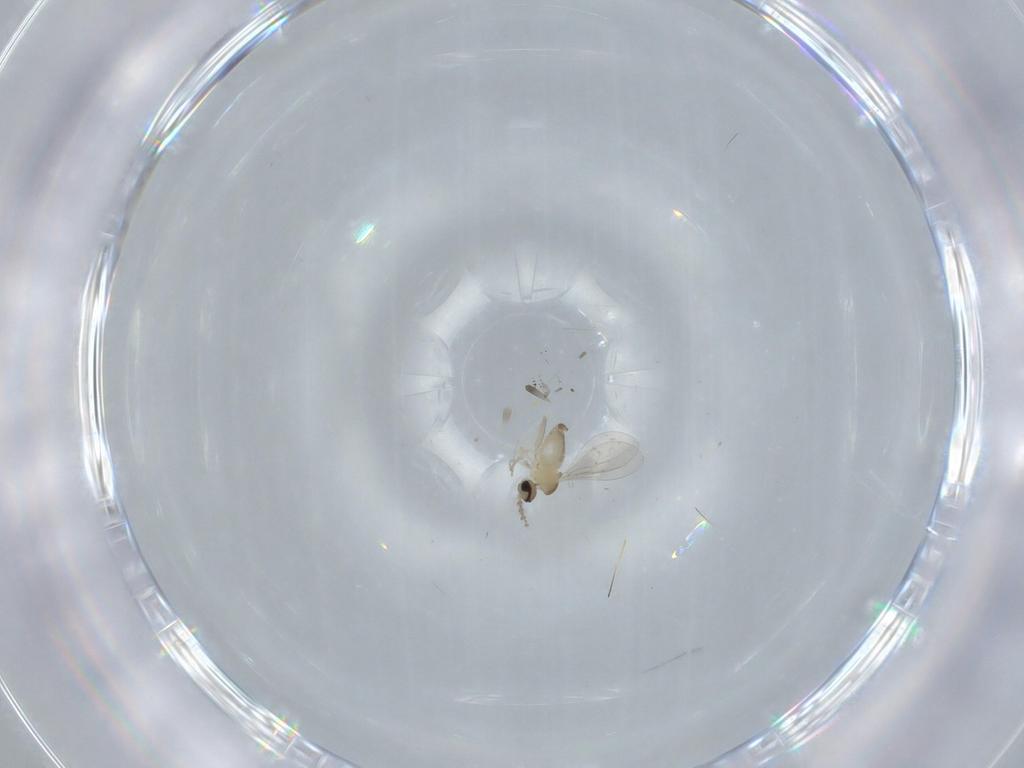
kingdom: Animalia
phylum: Arthropoda
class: Insecta
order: Diptera
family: Cecidomyiidae
